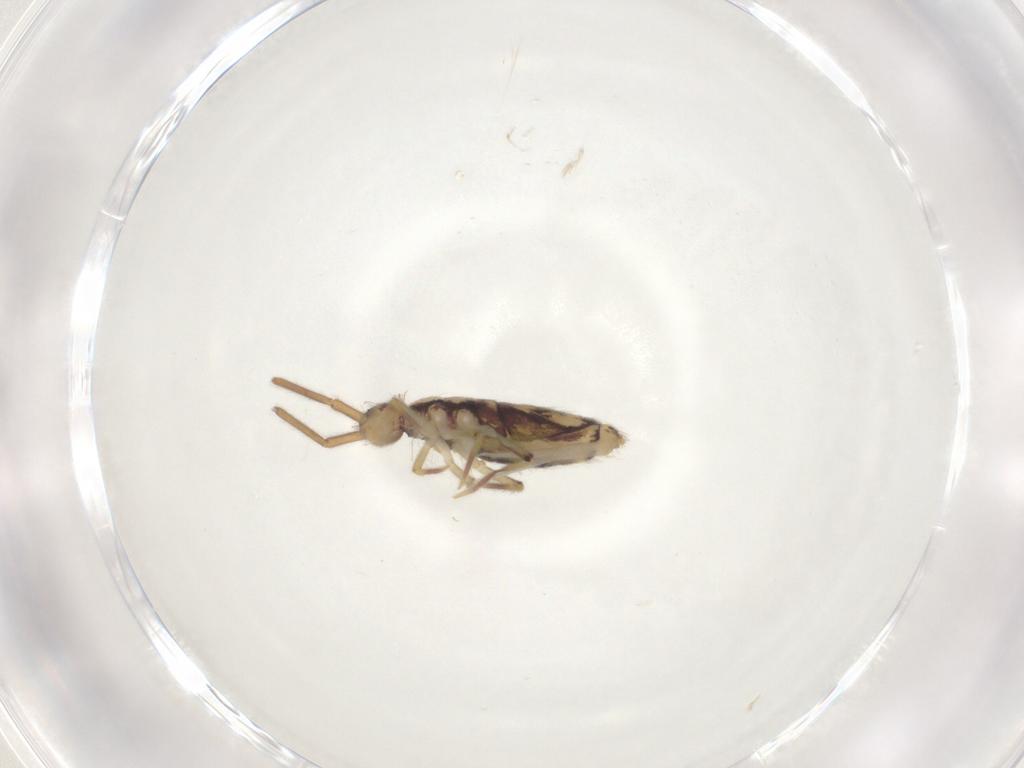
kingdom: Animalia
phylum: Arthropoda
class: Collembola
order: Entomobryomorpha
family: Entomobryidae
